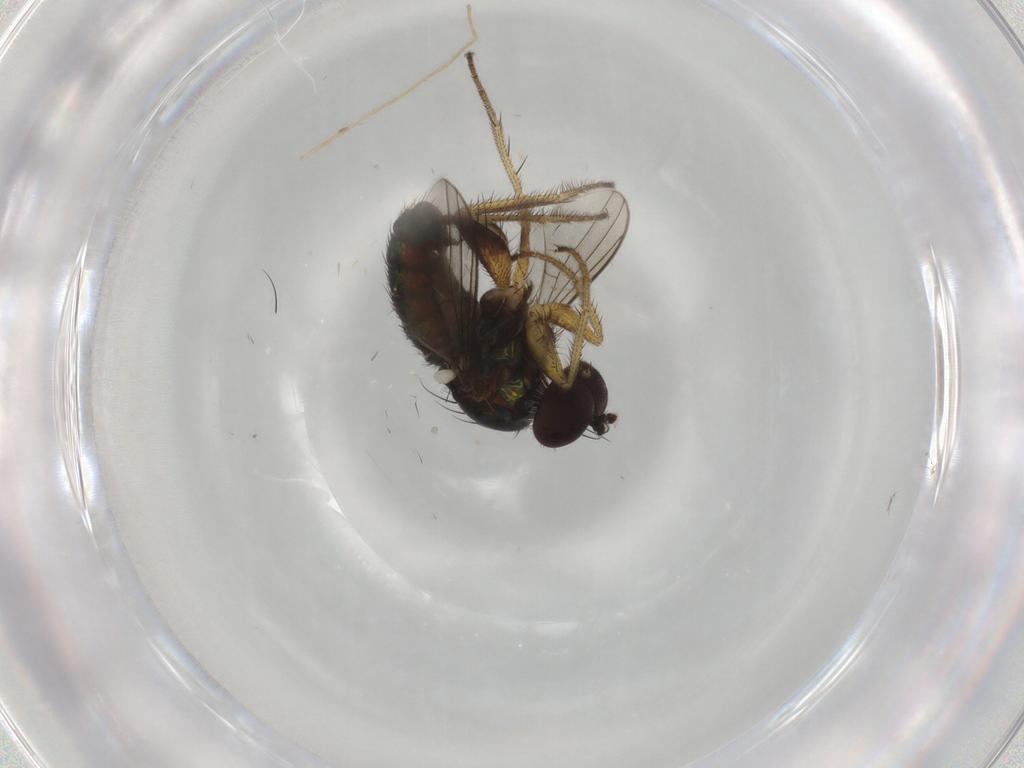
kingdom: Animalia
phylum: Arthropoda
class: Insecta
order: Diptera
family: Dolichopodidae
